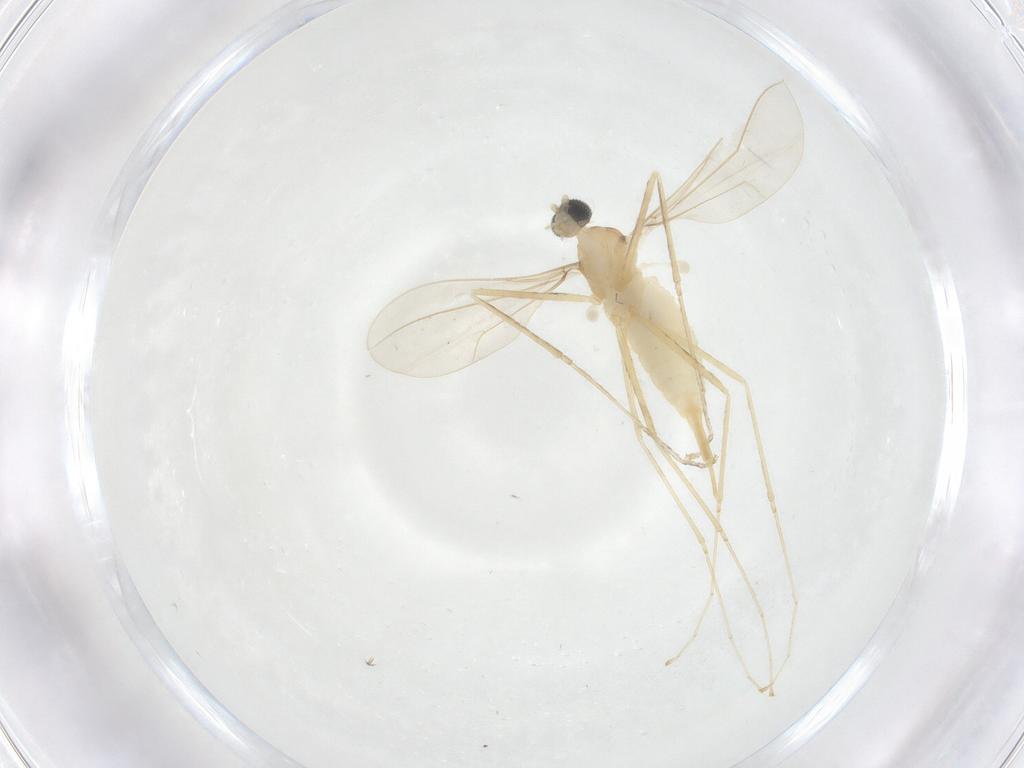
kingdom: Animalia
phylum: Arthropoda
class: Insecta
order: Diptera
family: Cecidomyiidae
